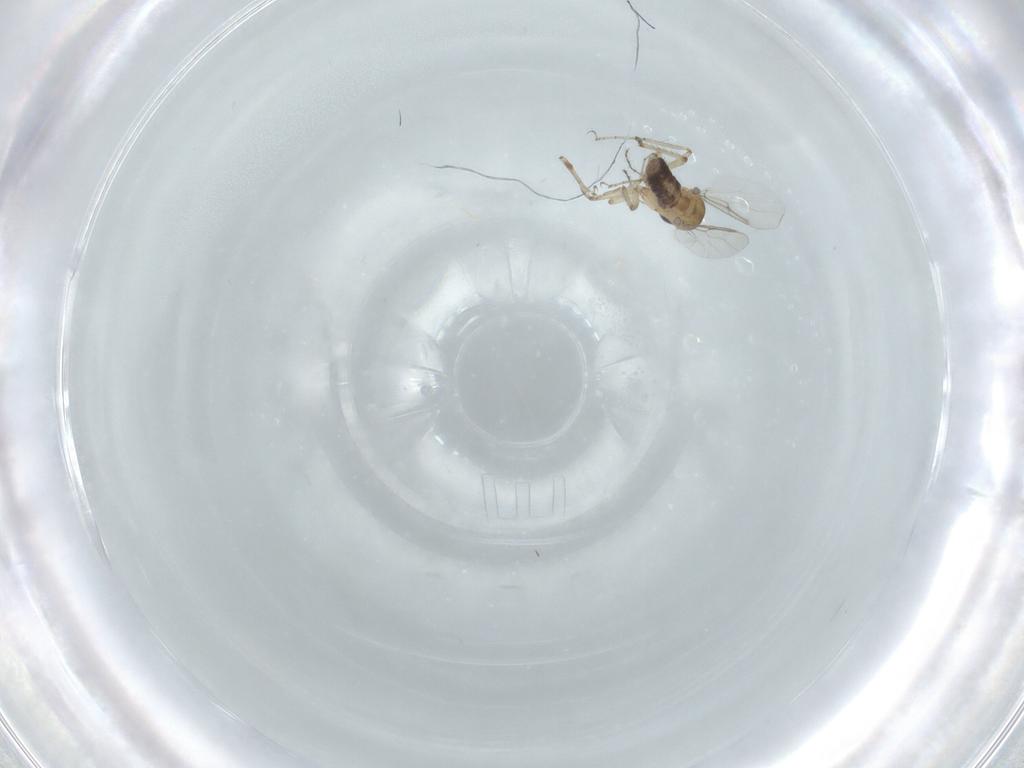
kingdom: Animalia
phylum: Arthropoda
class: Insecta
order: Diptera
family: Ceratopogonidae
